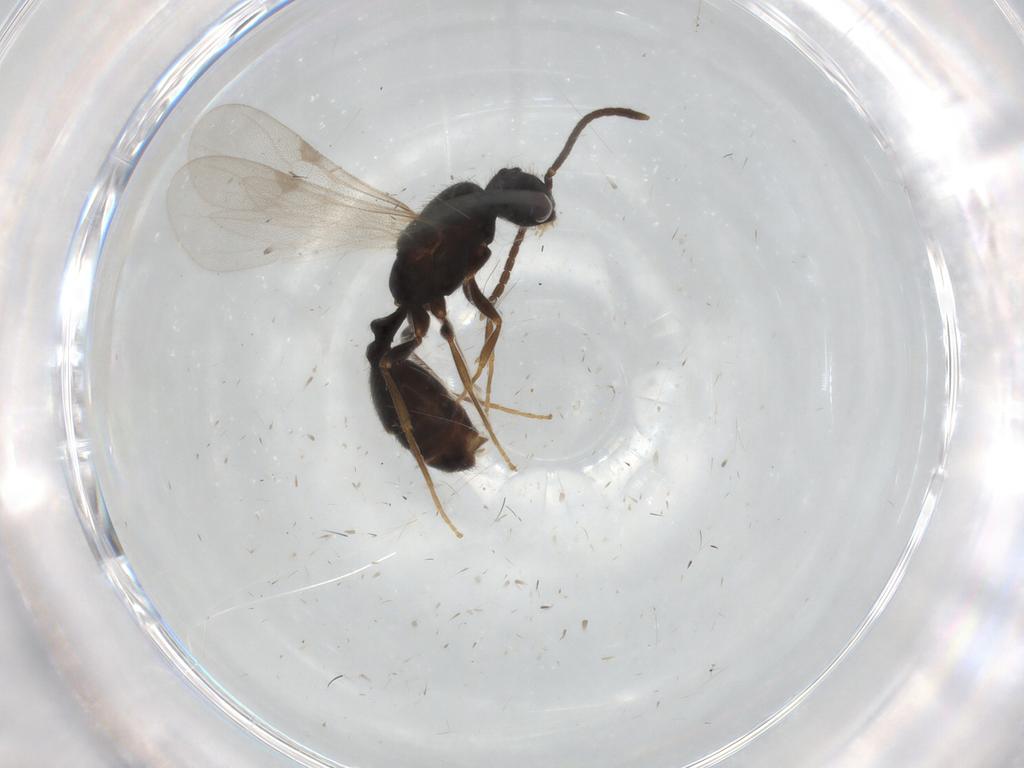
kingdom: Animalia
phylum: Arthropoda
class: Insecta
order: Hymenoptera
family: Formicidae
